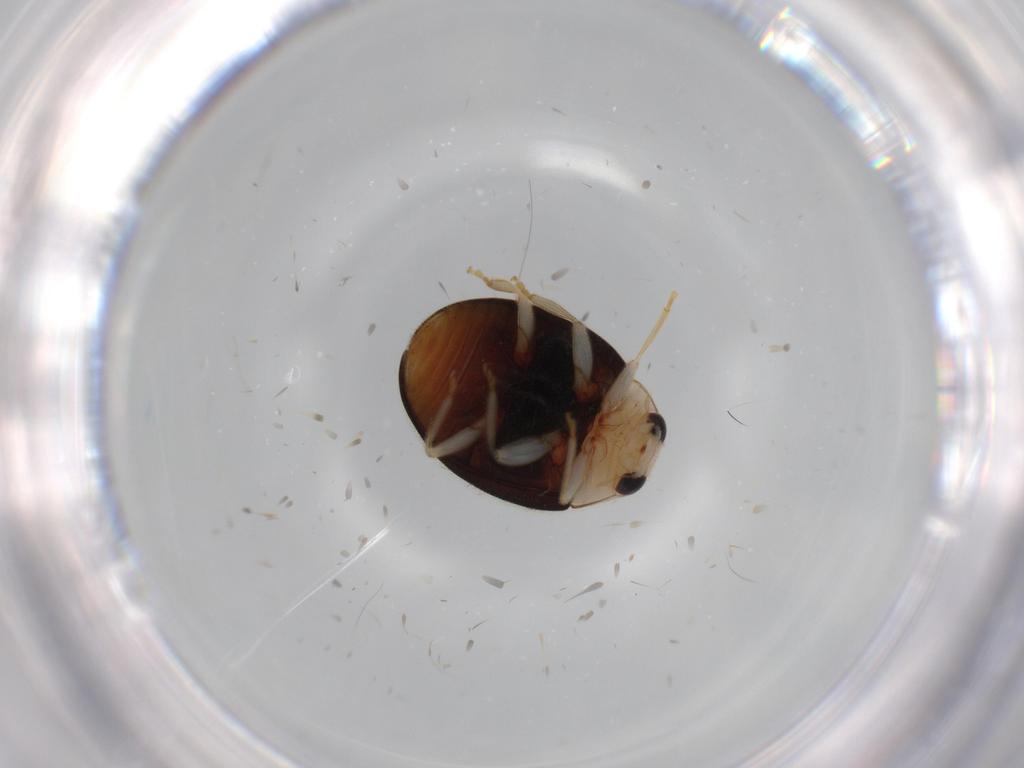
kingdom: Animalia
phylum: Arthropoda
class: Insecta
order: Coleoptera
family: Coccinellidae
